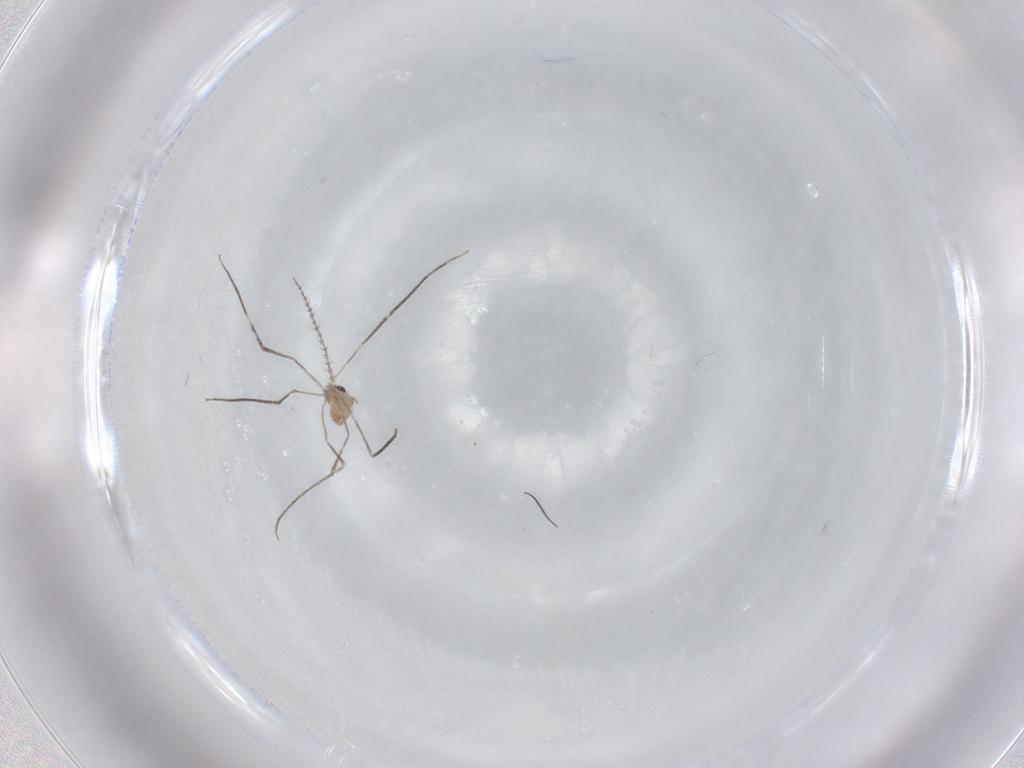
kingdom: Animalia
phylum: Arthropoda
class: Insecta
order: Diptera
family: Cecidomyiidae
